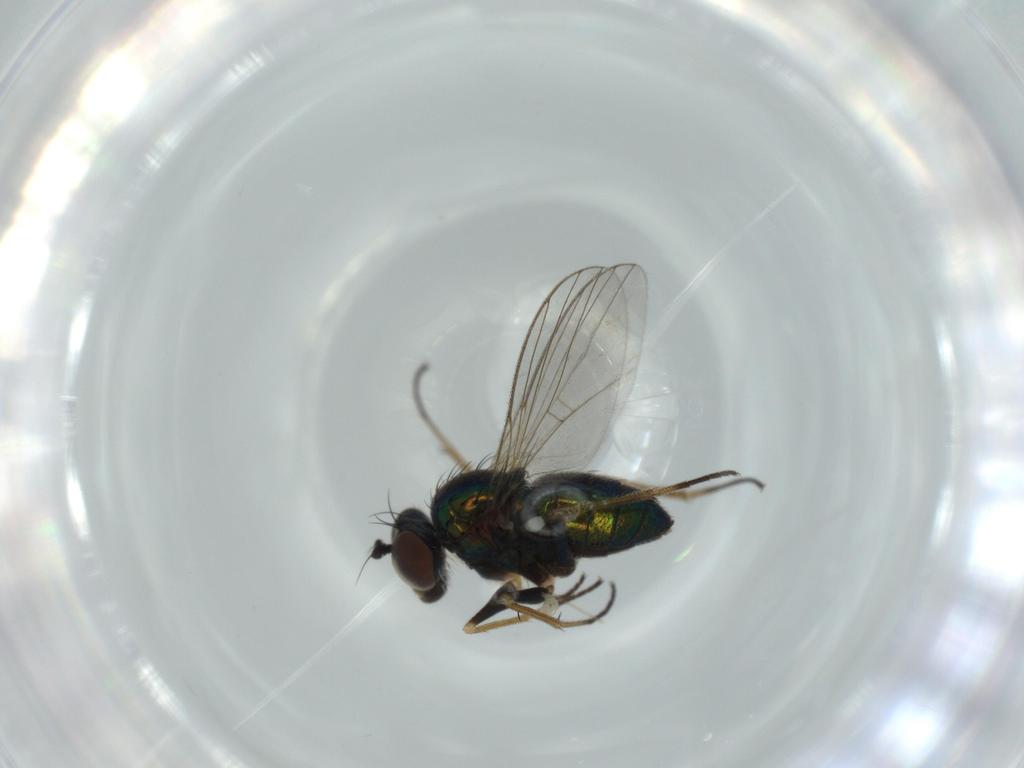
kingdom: Animalia
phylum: Arthropoda
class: Insecta
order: Diptera
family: Dolichopodidae
